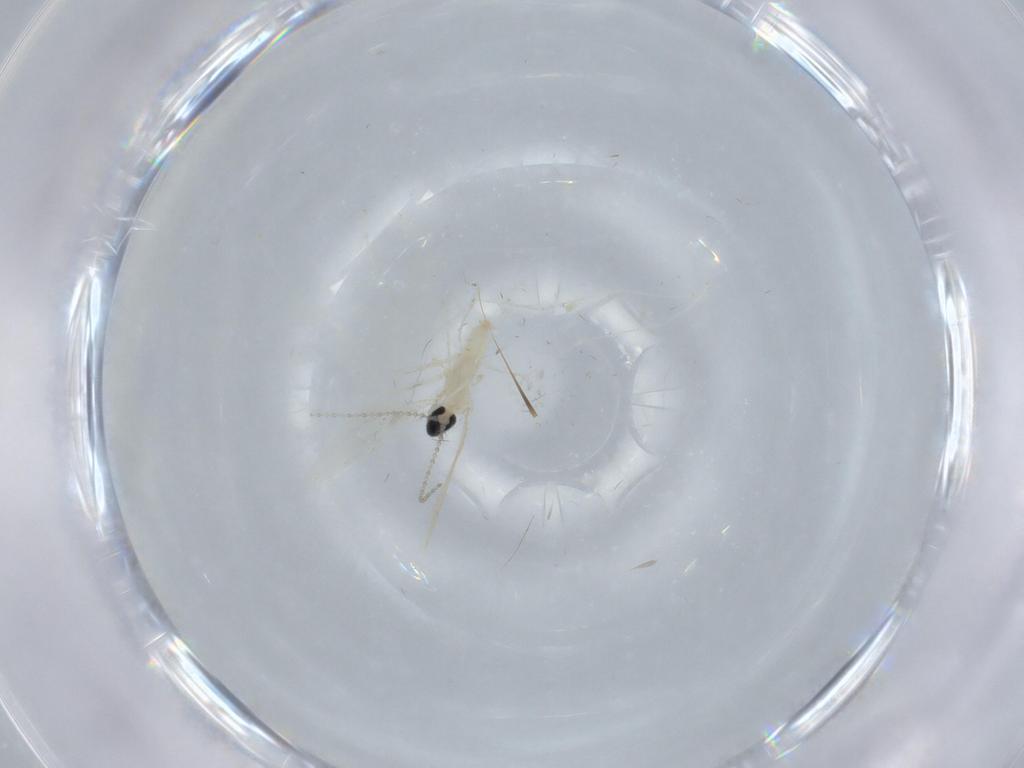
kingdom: Animalia
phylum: Arthropoda
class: Insecta
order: Diptera
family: Cecidomyiidae
